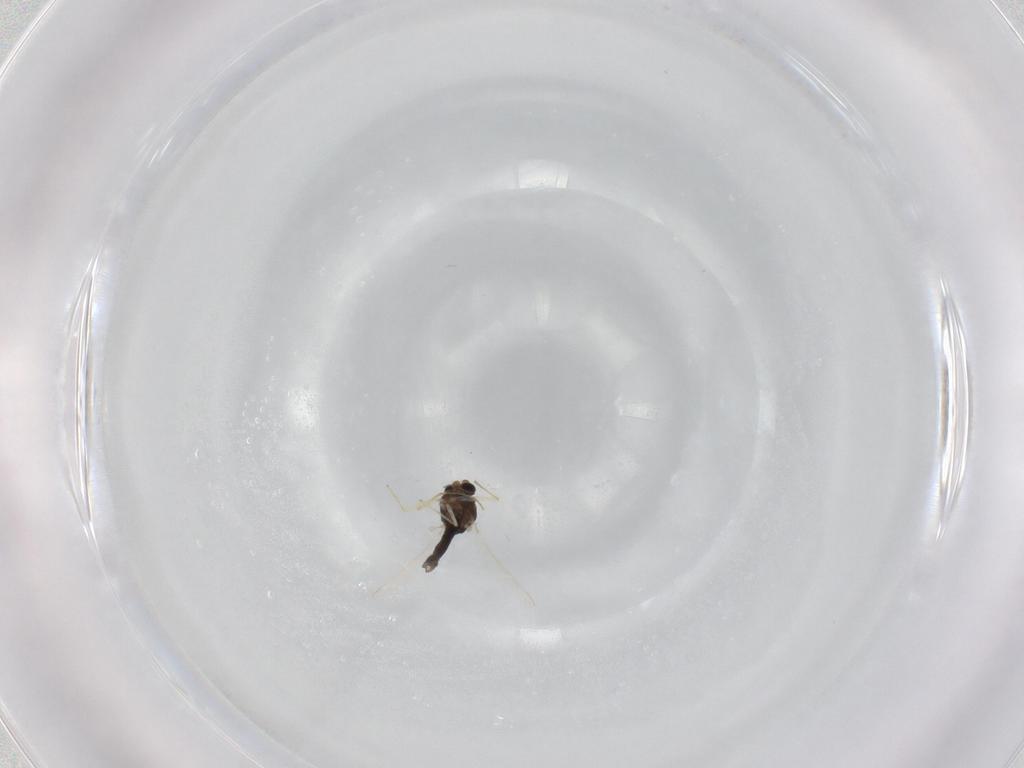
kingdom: Animalia
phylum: Arthropoda
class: Insecta
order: Diptera
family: Chironomidae
